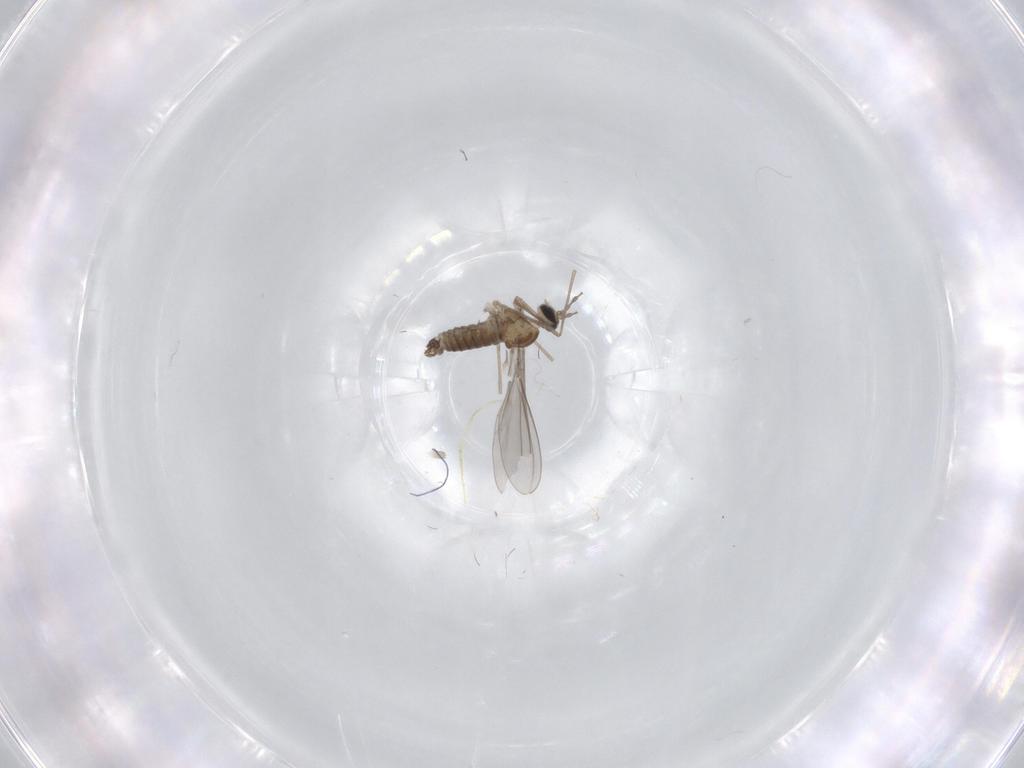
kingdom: Animalia
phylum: Arthropoda
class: Insecta
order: Diptera
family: Cecidomyiidae
